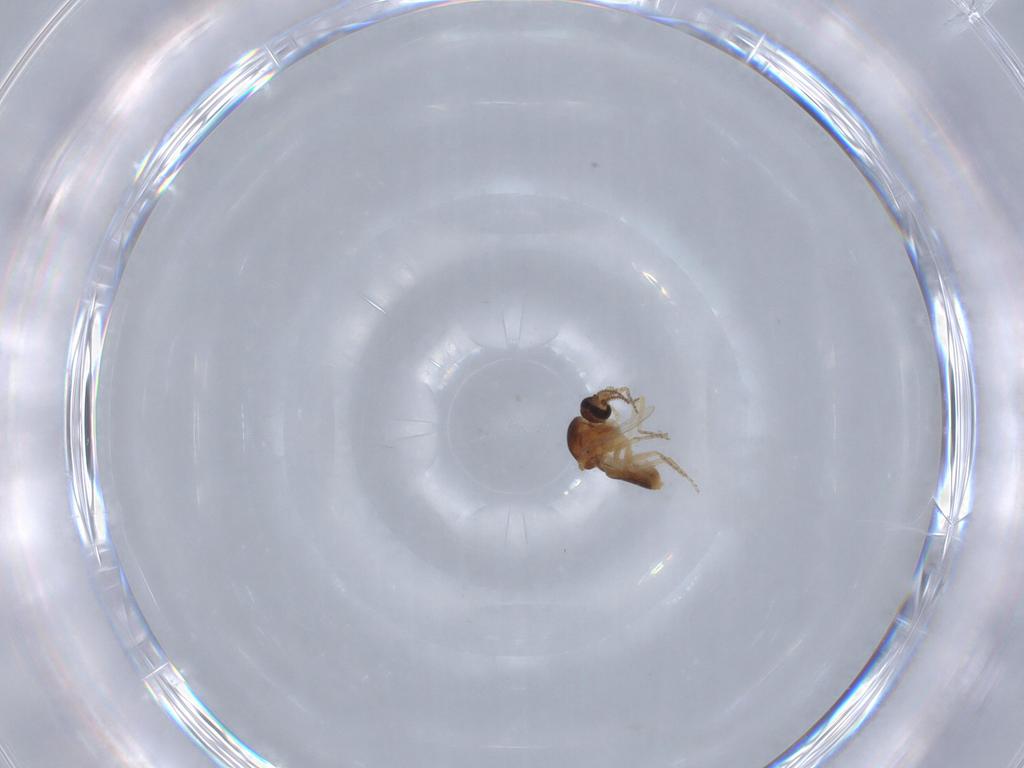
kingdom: Animalia
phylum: Arthropoda
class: Insecta
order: Diptera
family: Ceratopogonidae
